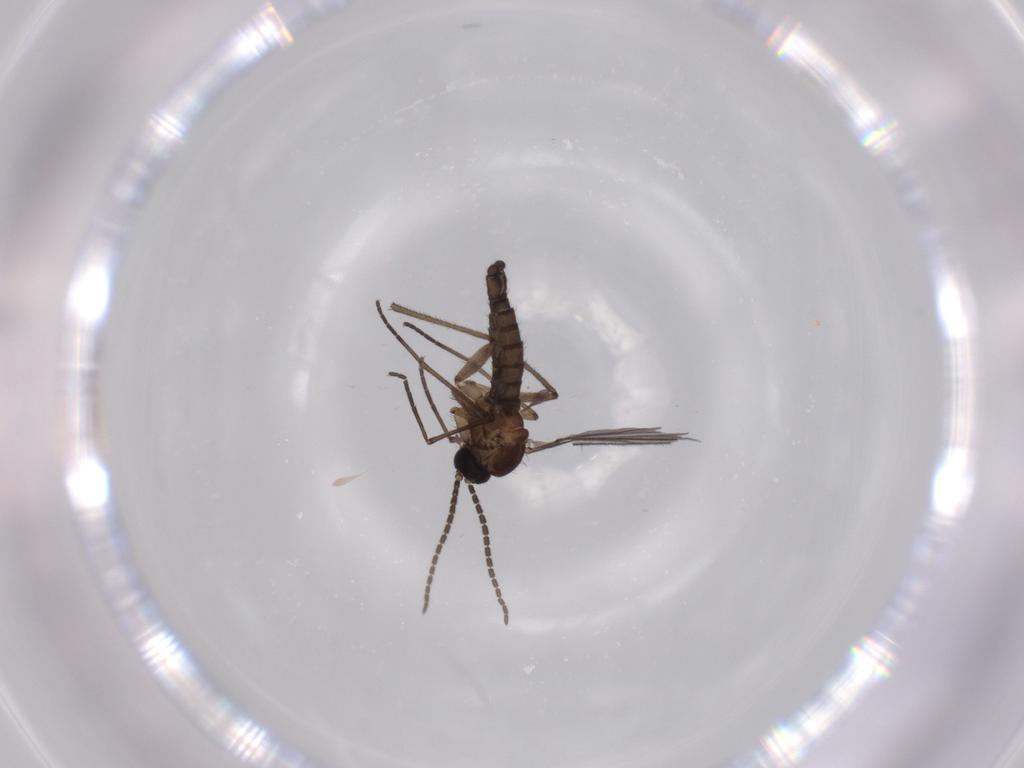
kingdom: Animalia
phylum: Arthropoda
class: Insecta
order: Diptera
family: Sciaridae
